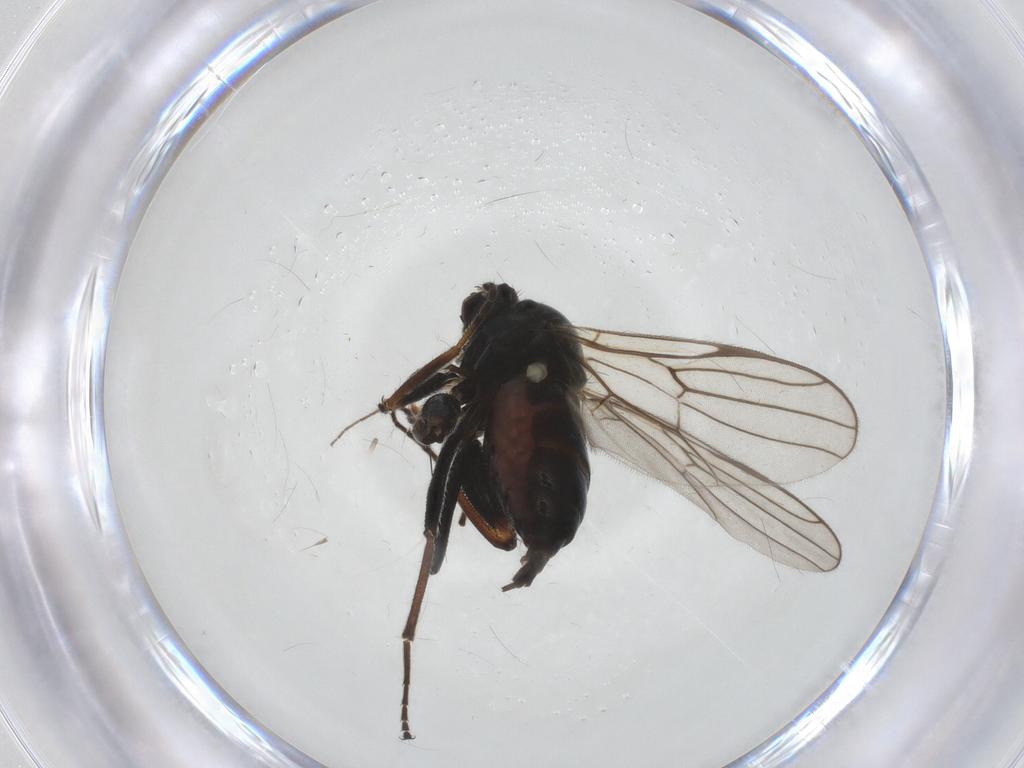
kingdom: Animalia
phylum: Arthropoda
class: Insecta
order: Diptera
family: Hybotidae
